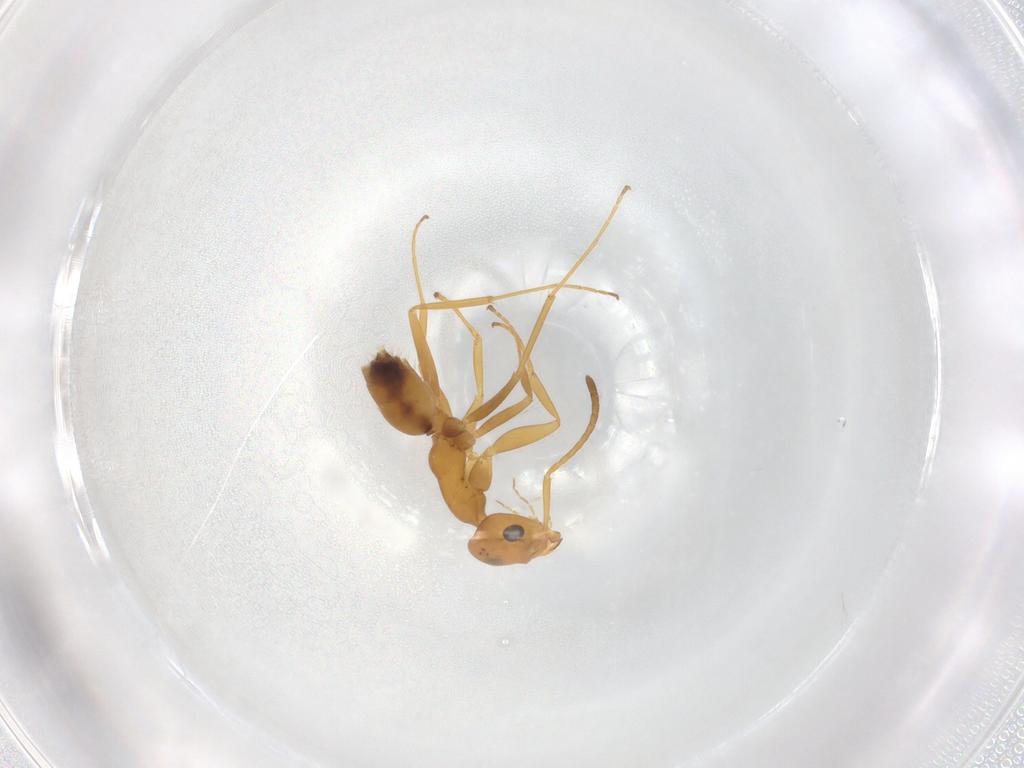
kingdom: Animalia
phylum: Arthropoda
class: Insecta
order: Hymenoptera
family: Formicidae
